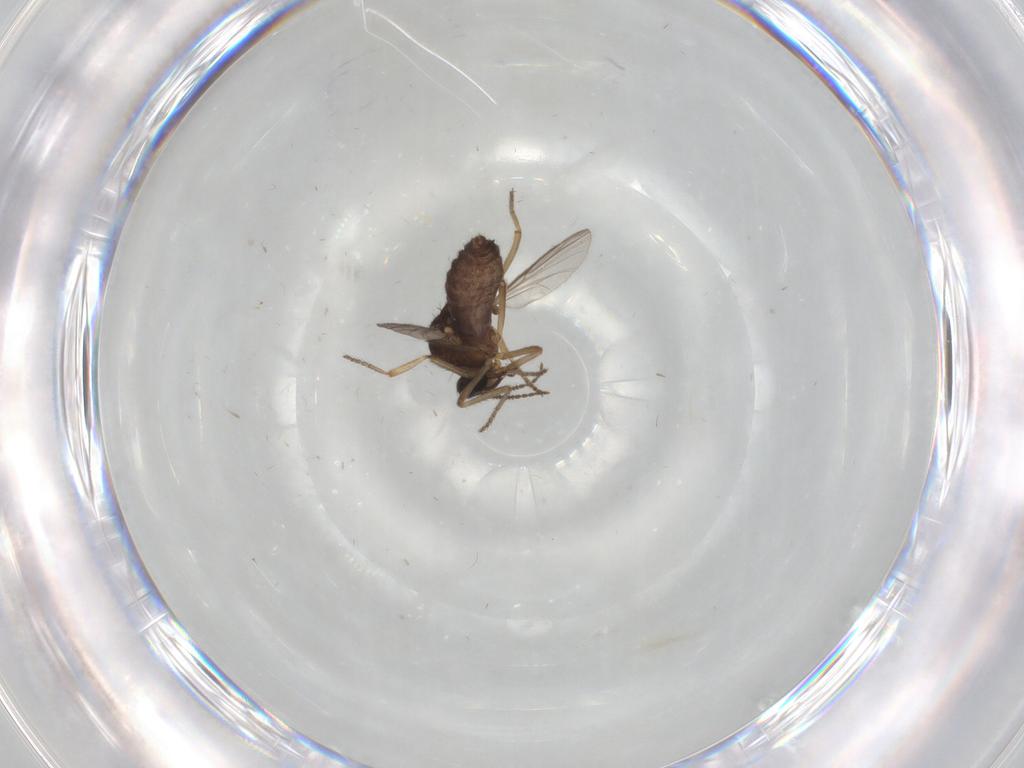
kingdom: Animalia
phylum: Arthropoda
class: Insecta
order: Diptera
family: Ceratopogonidae
